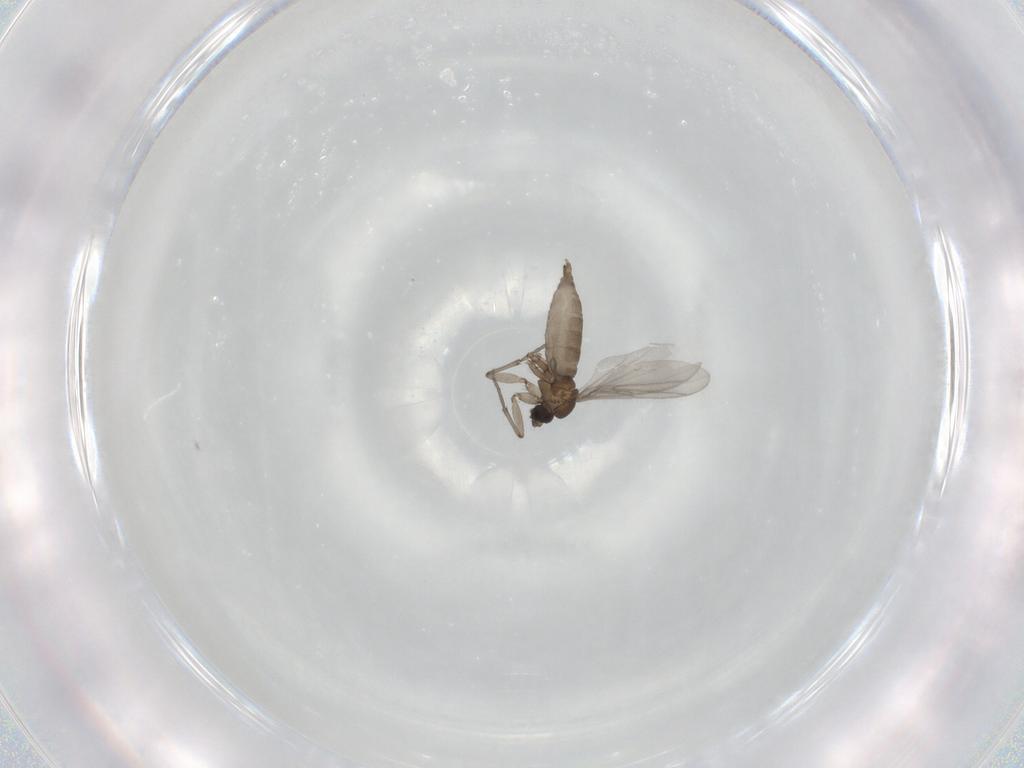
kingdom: Animalia
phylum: Arthropoda
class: Insecta
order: Diptera
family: Sciaridae
